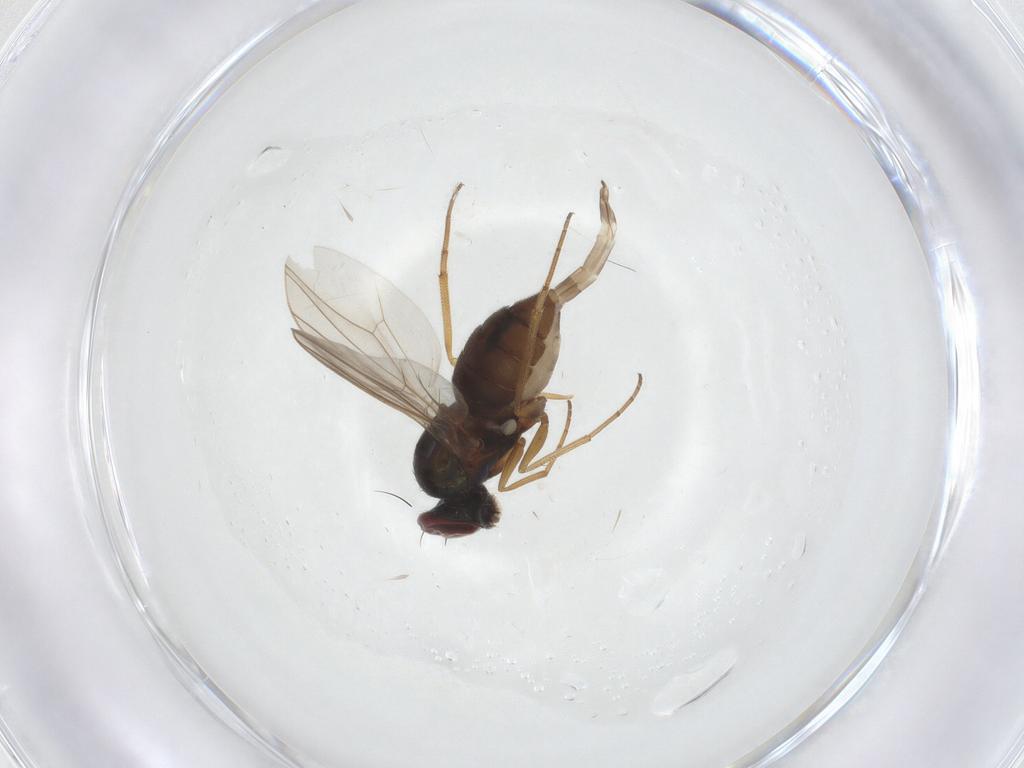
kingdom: Animalia
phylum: Arthropoda
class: Insecta
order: Diptera
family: Dolichopodidae
